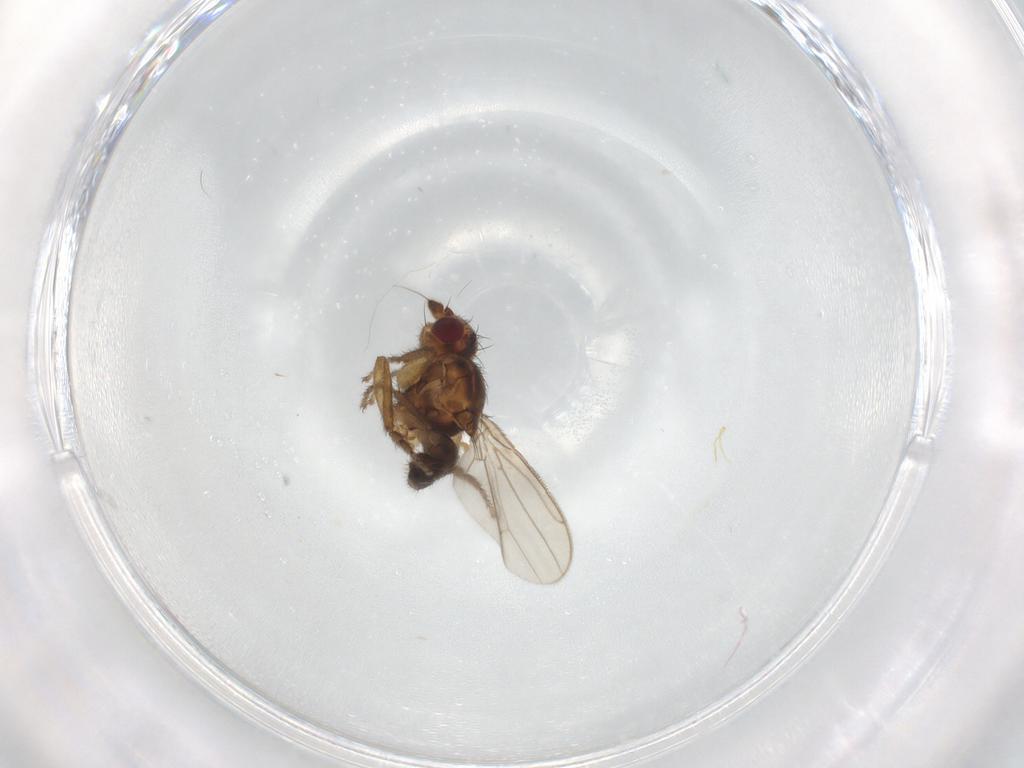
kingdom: Animalia
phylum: Arthropoda
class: Insecta
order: Diptera
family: Sphaeroceridae
